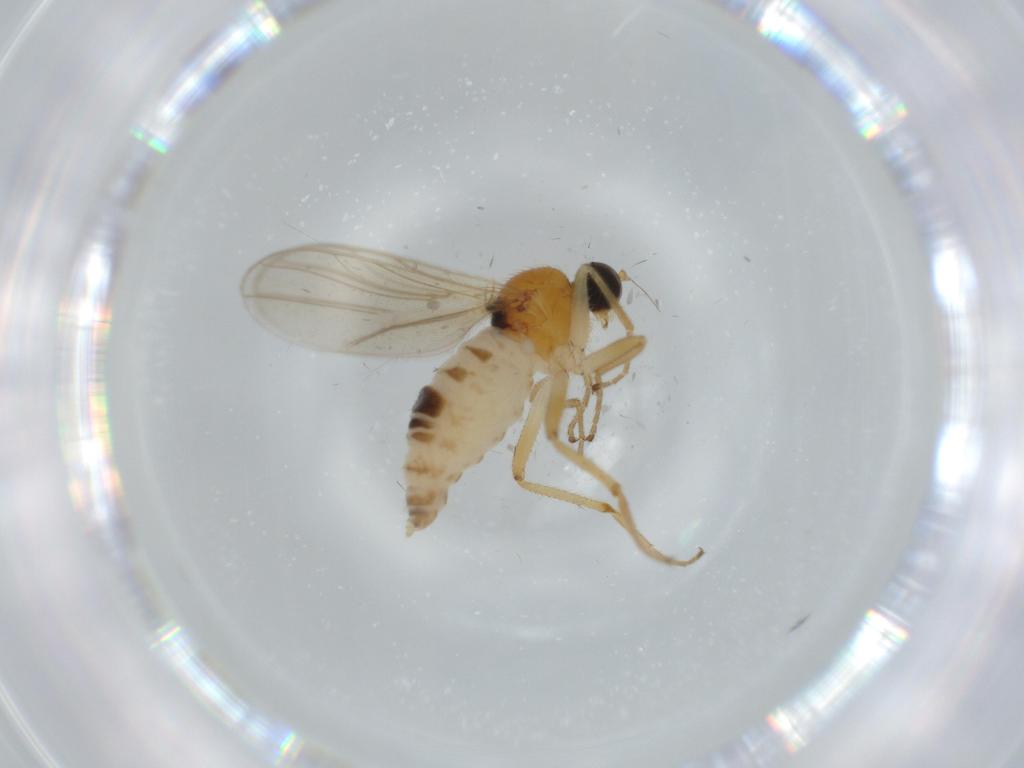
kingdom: Animalia
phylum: Arthropoda
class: Insecta
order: Diptera
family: Hybotidae
